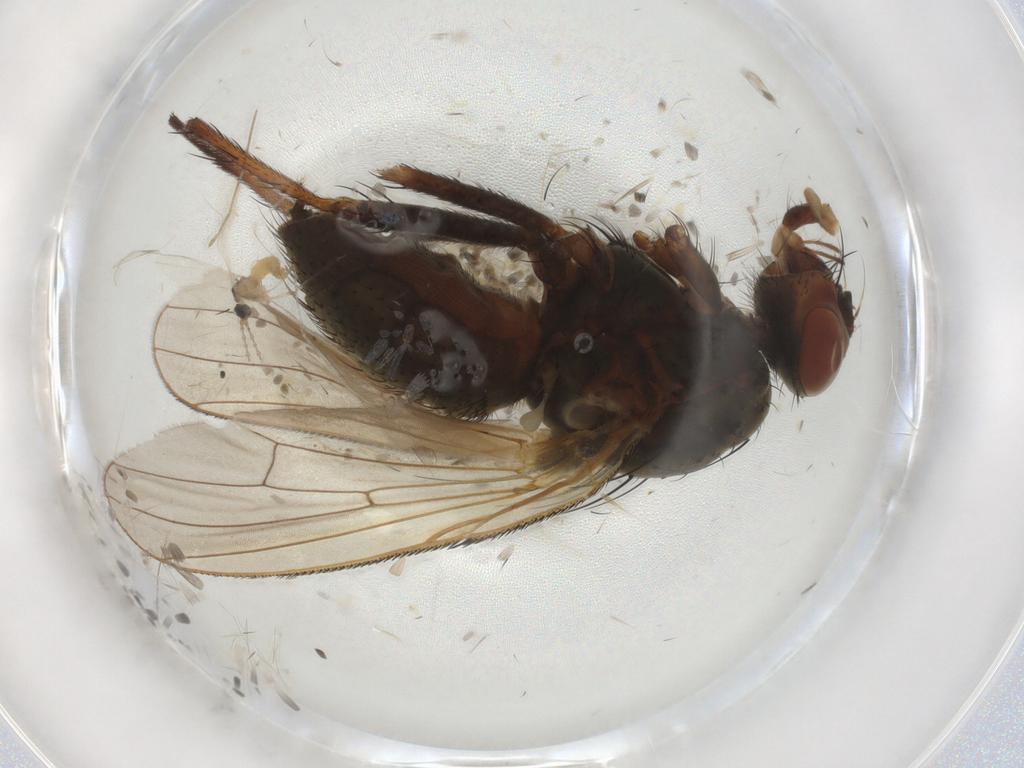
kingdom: Animalia
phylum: Arthropoda
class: Insecta
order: Diptera
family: Anthomyiidae
